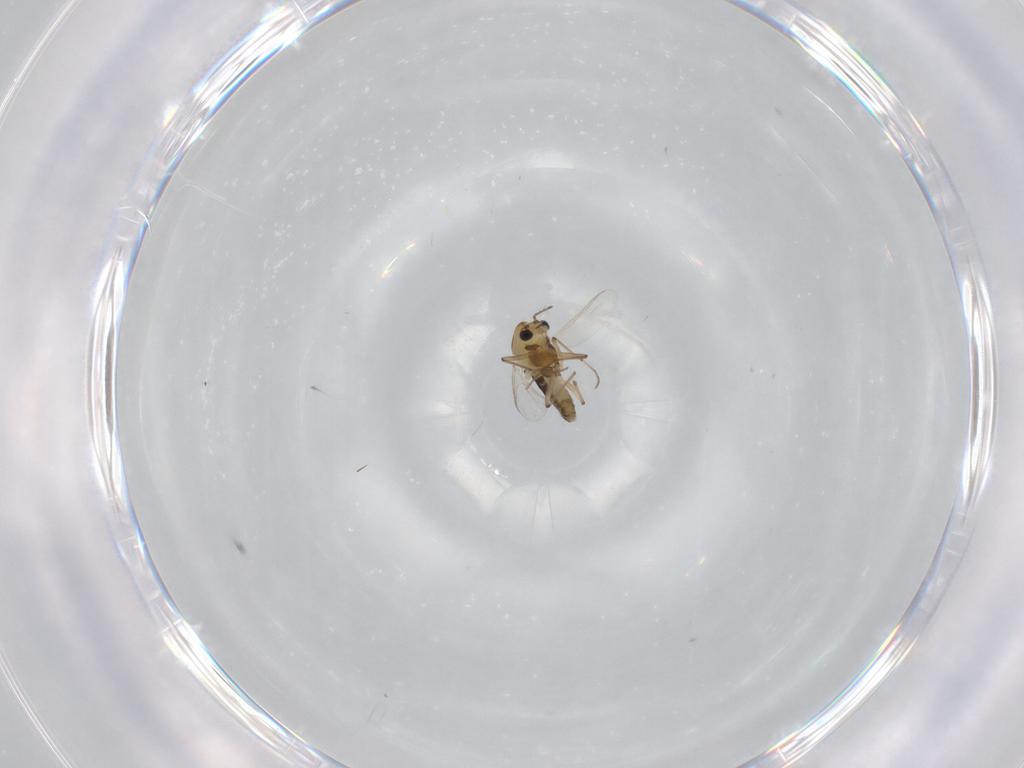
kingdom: Animalia
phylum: Arthropoda
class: Insecta
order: Diptera
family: Chironomidae
